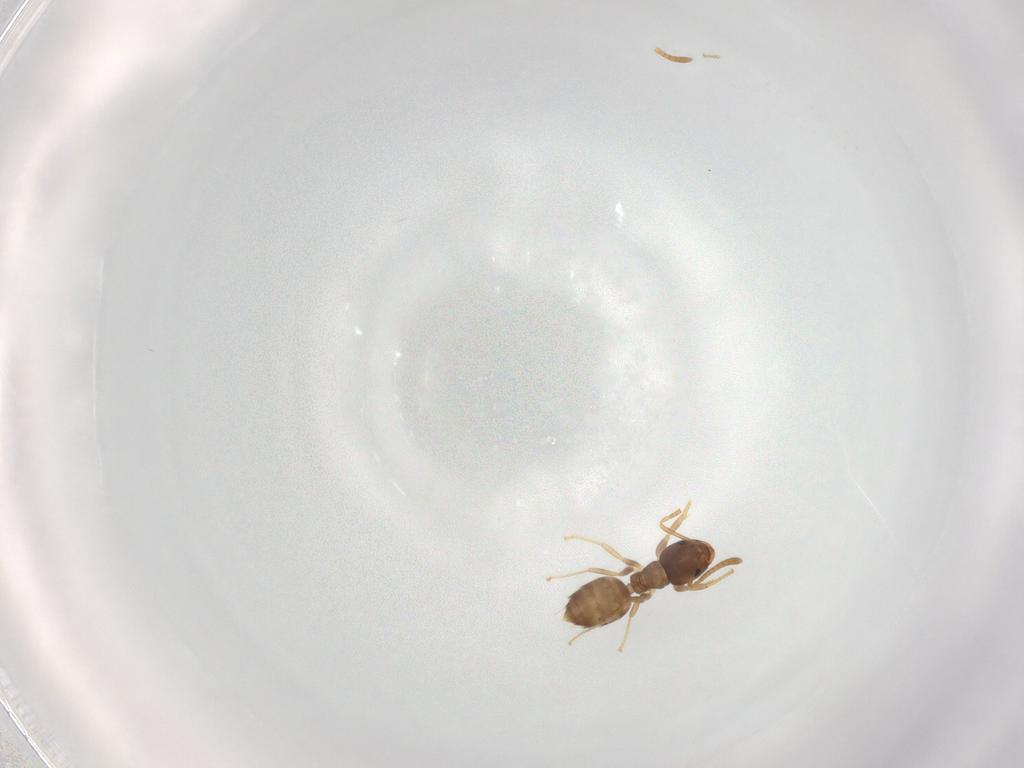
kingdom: Animalia
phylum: Arthropoda
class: Insecta
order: Hymenoptera
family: Formicidae
